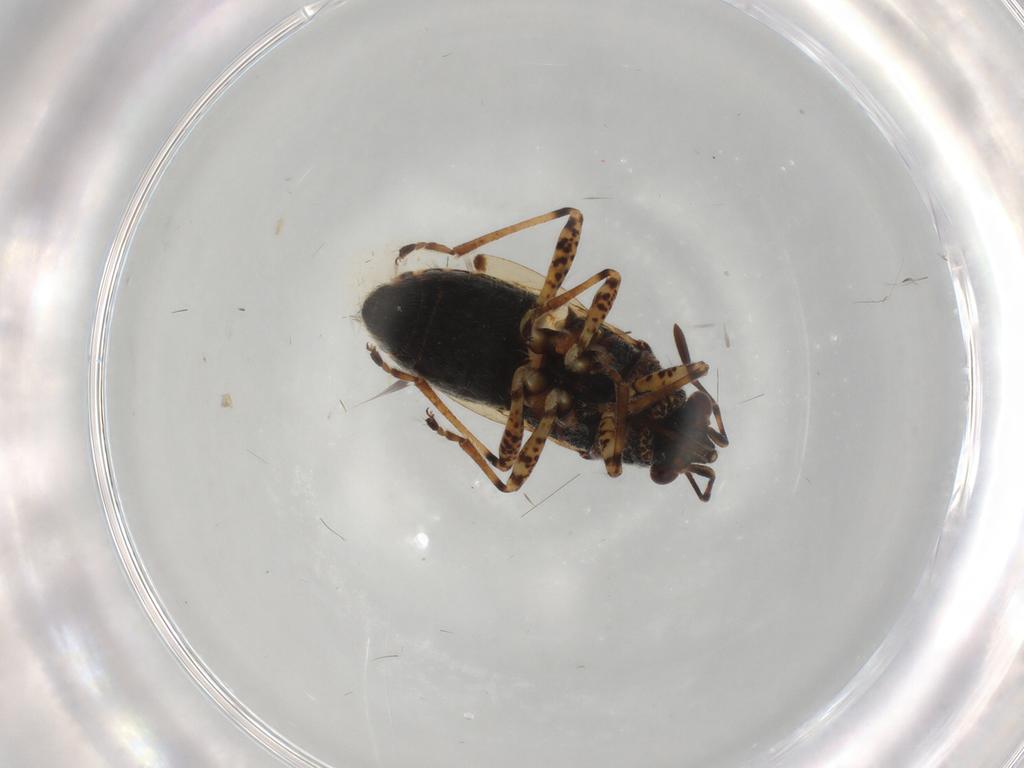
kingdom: Animalia
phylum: Arthropoda
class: Insecta
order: Hemiptera
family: Lygaeidae
